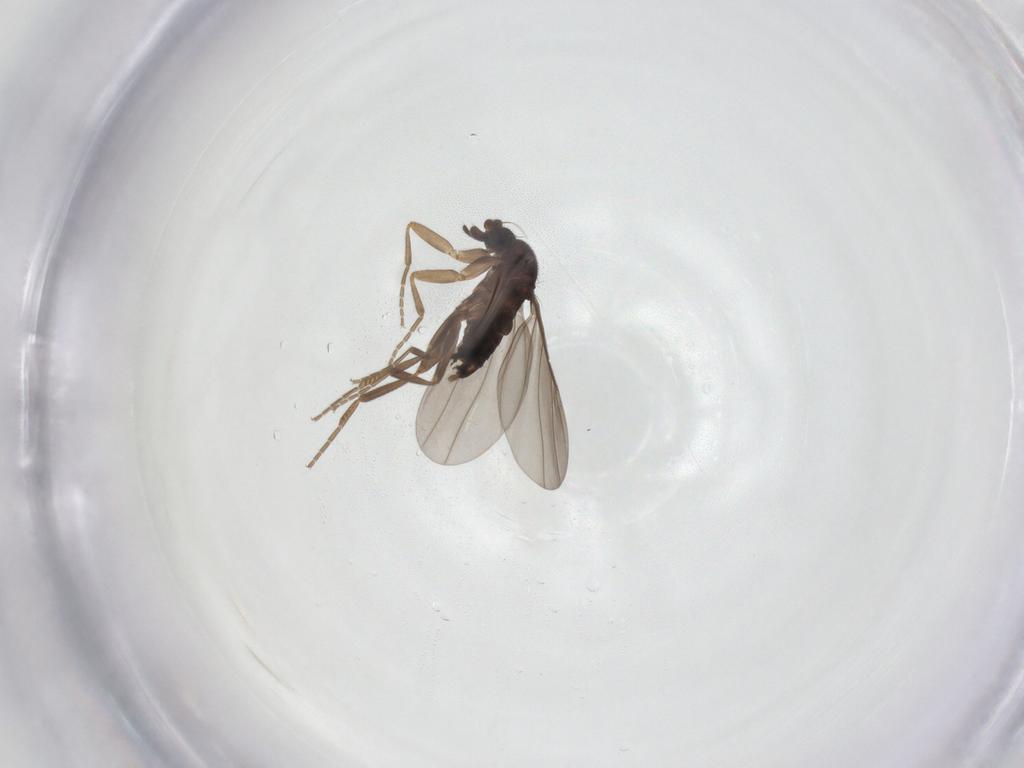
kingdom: Animalia
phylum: Arthropoda
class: Insecta
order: Diptera
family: Phoridae
